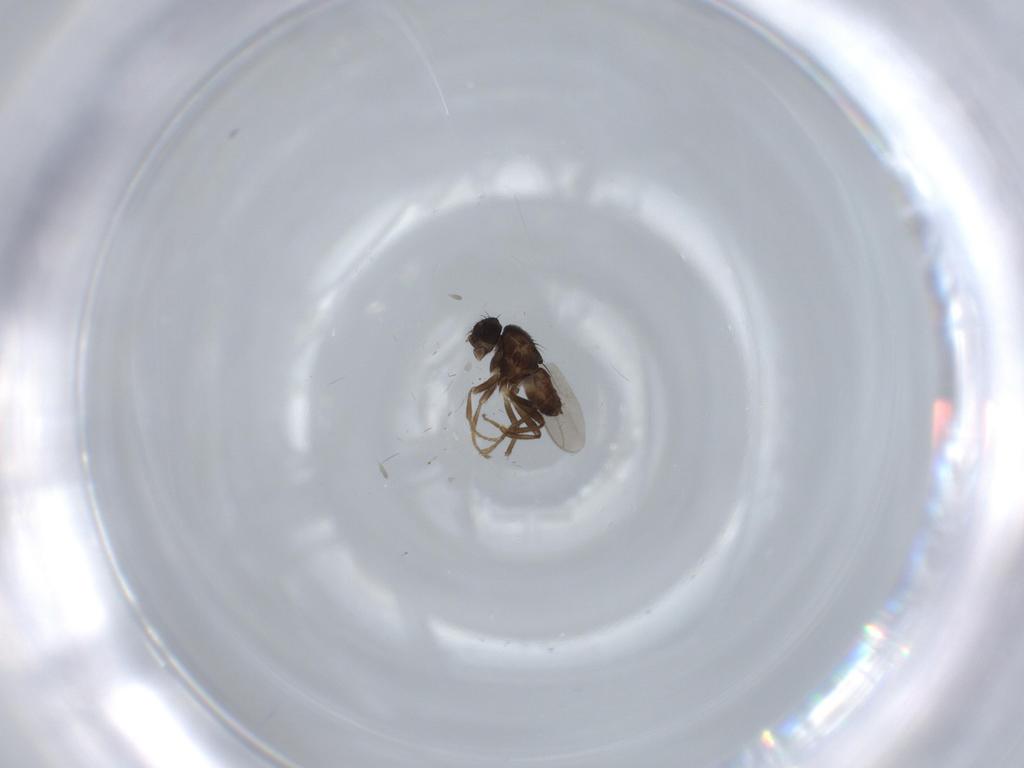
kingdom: Animalia
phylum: Arthropoda
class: Insecta
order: Diptera
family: Sphaeroceridae
